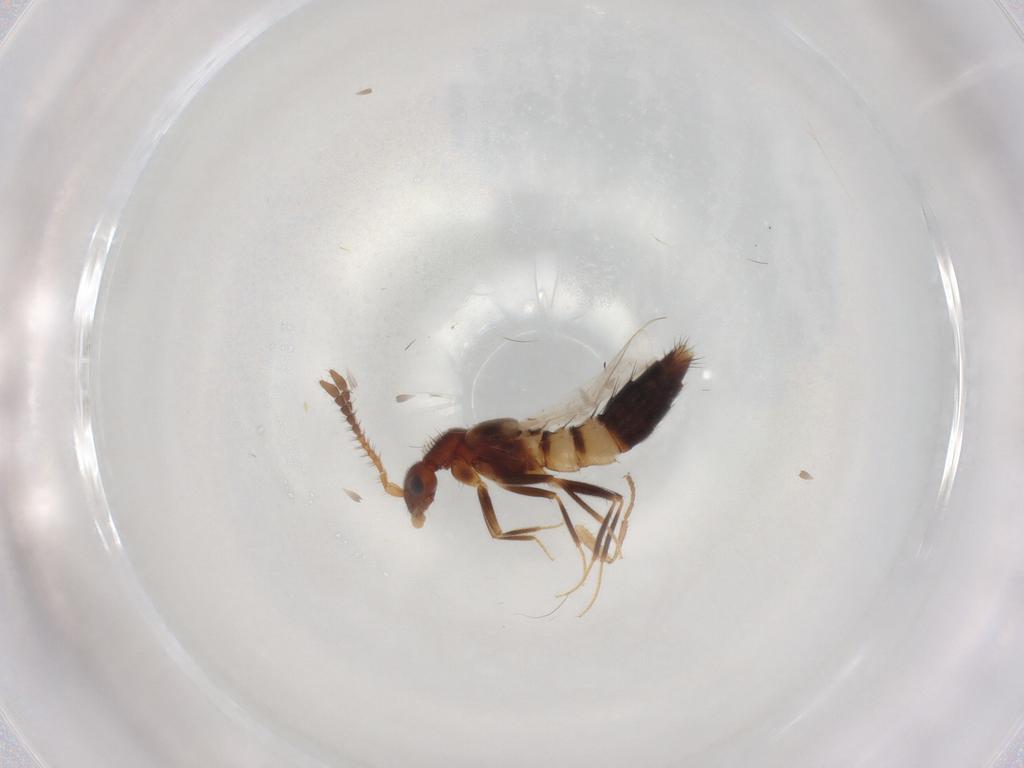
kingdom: Animalia
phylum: Arthropoda
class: Insecta
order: Coleoptera
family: Staphylinidae
